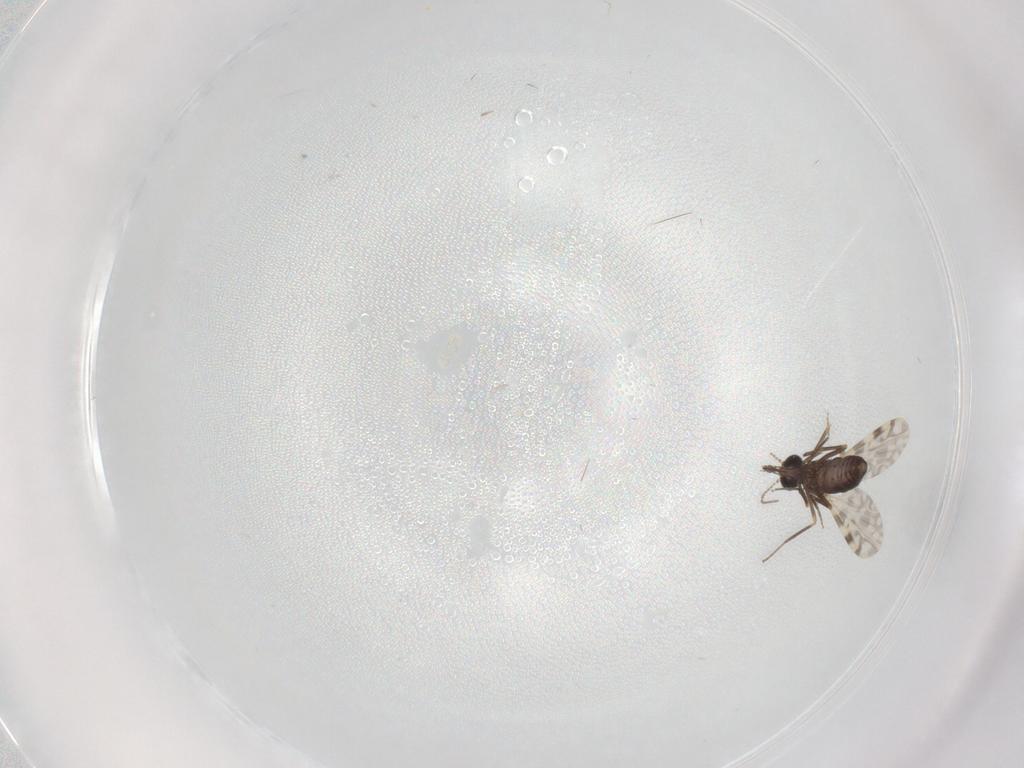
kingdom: Animalia
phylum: Arthropoda
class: Insecta
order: Diptera
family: Ceratopogonidae
